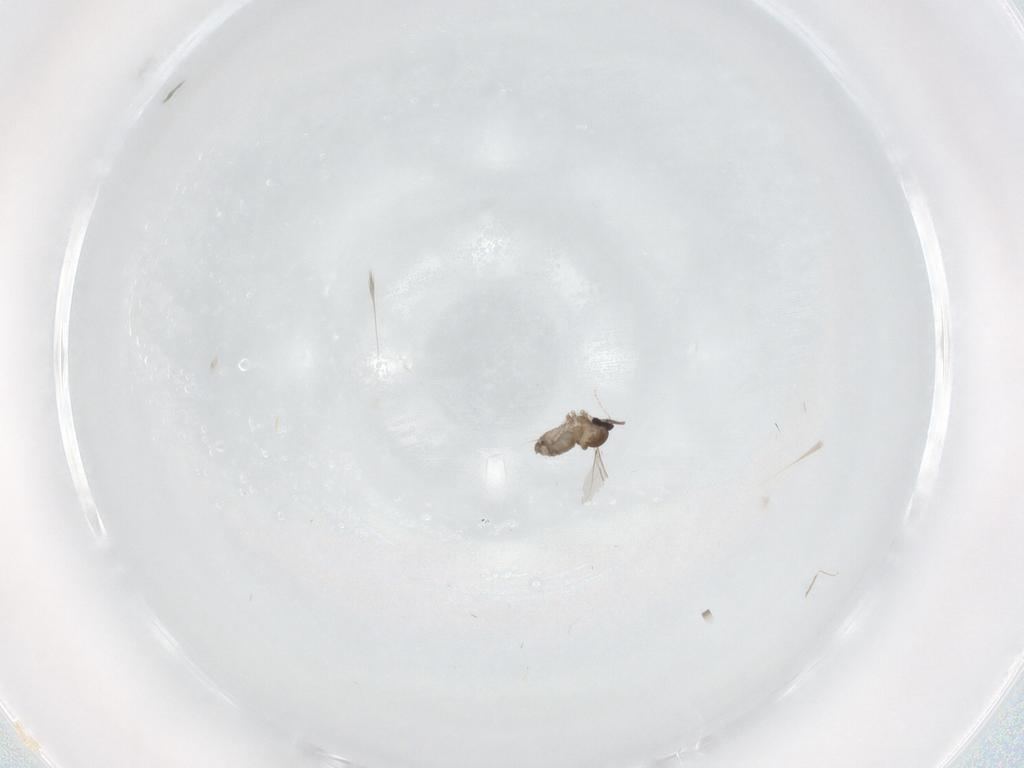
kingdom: Animalia
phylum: Arthropoda
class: Insecta
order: Diptera
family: Cecidomyiidae
